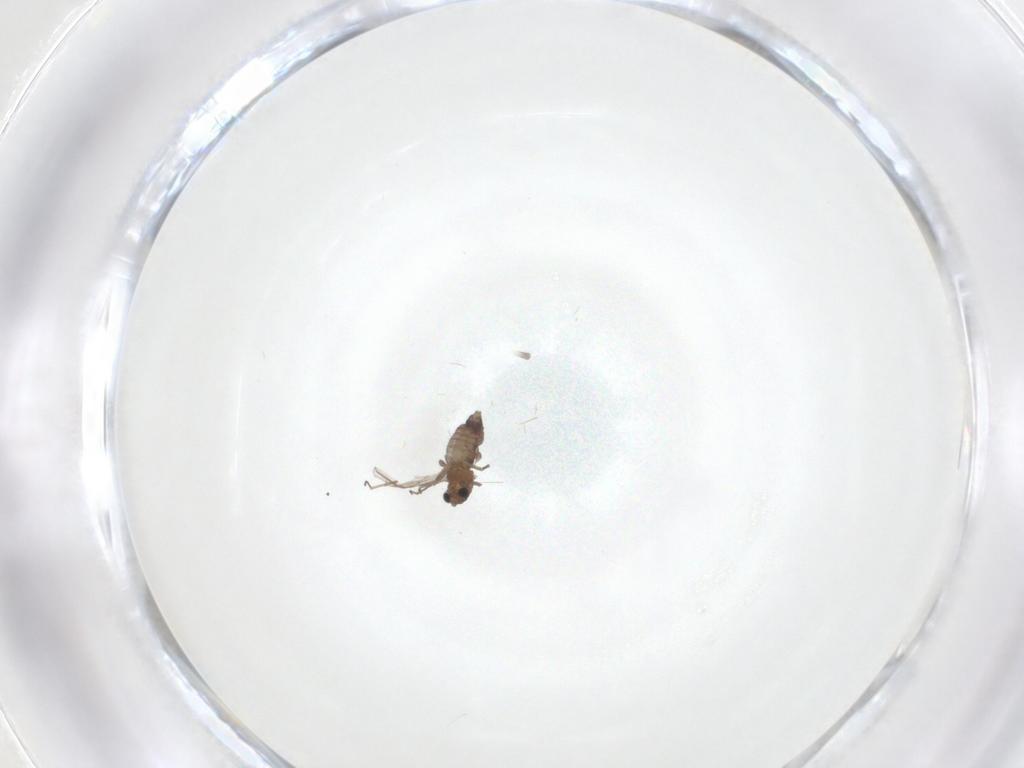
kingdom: Animalia
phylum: Arthropoda
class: Insecta
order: Diptera
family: Chironomidae
